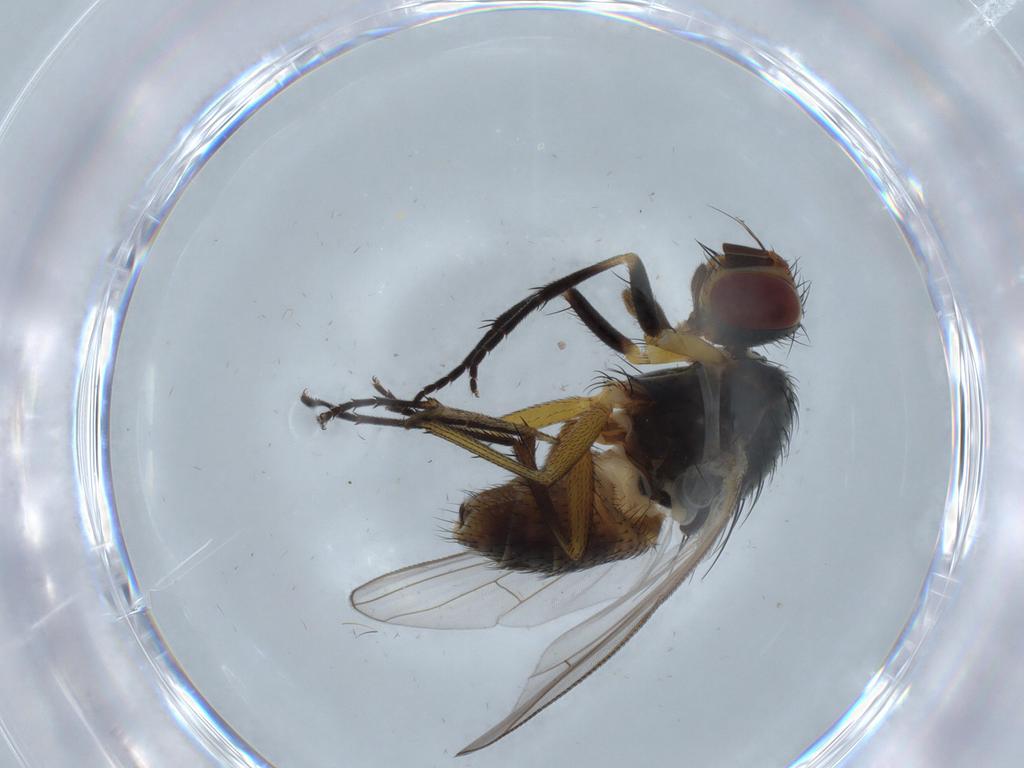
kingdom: Animalia
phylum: Arthropoda
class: Insecta
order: Diptera
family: Muscidae
